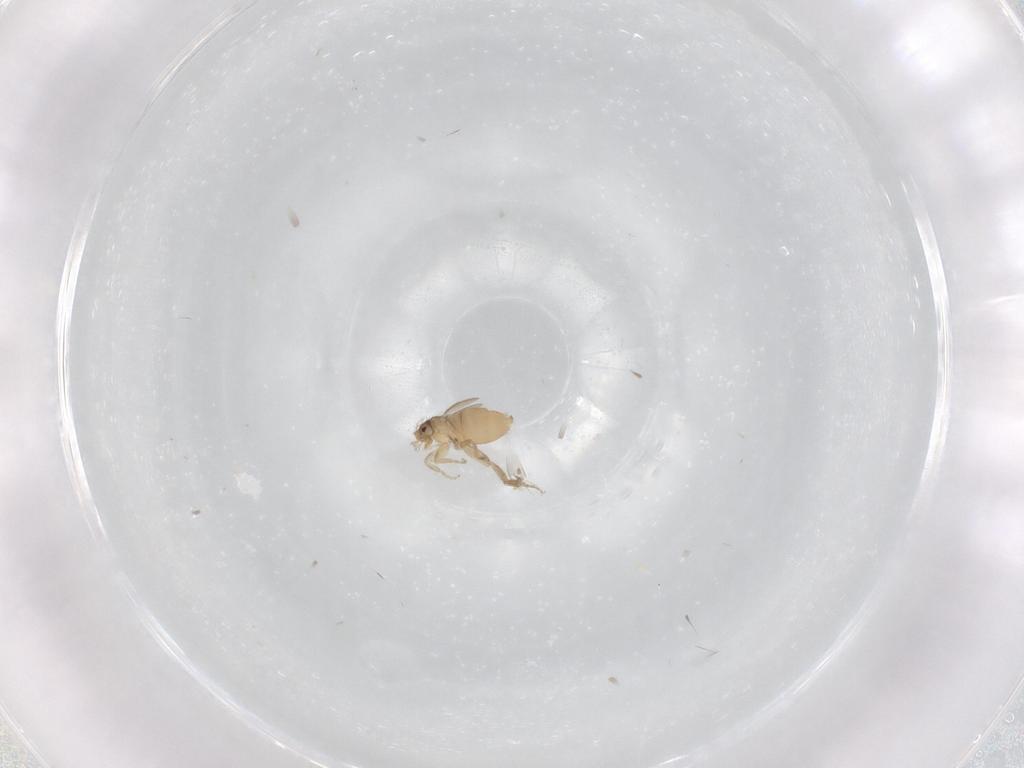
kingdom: Animalia
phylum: Arthropoda
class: Insecta
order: Diptera
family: Phoridae
